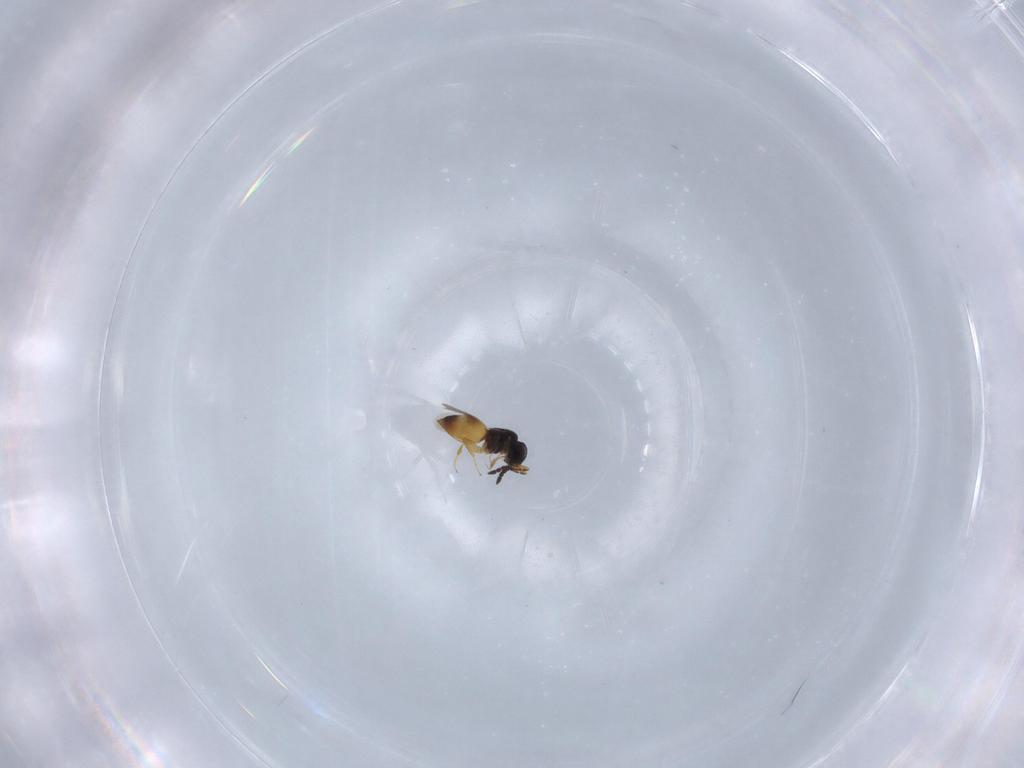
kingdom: Animalia
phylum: Arthropoda
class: Insecta
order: Hymenoptera
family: Ceraphronidae
